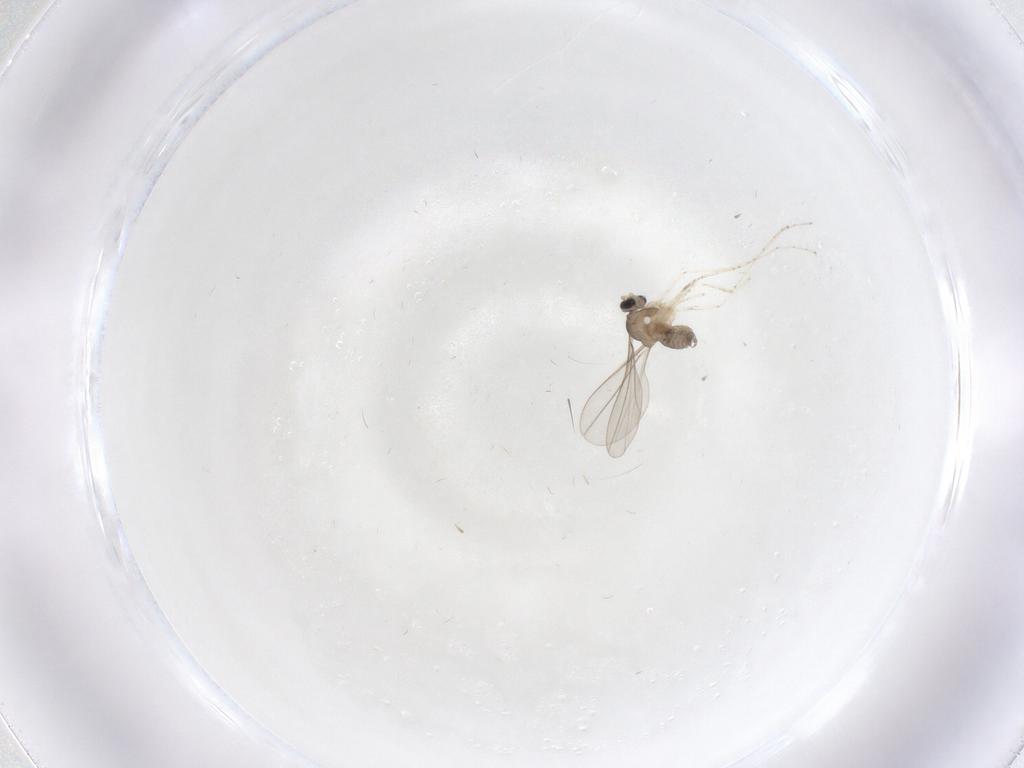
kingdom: Animalia
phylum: Arthropoda
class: Insecta
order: Diptera
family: Cecidomyiidae
